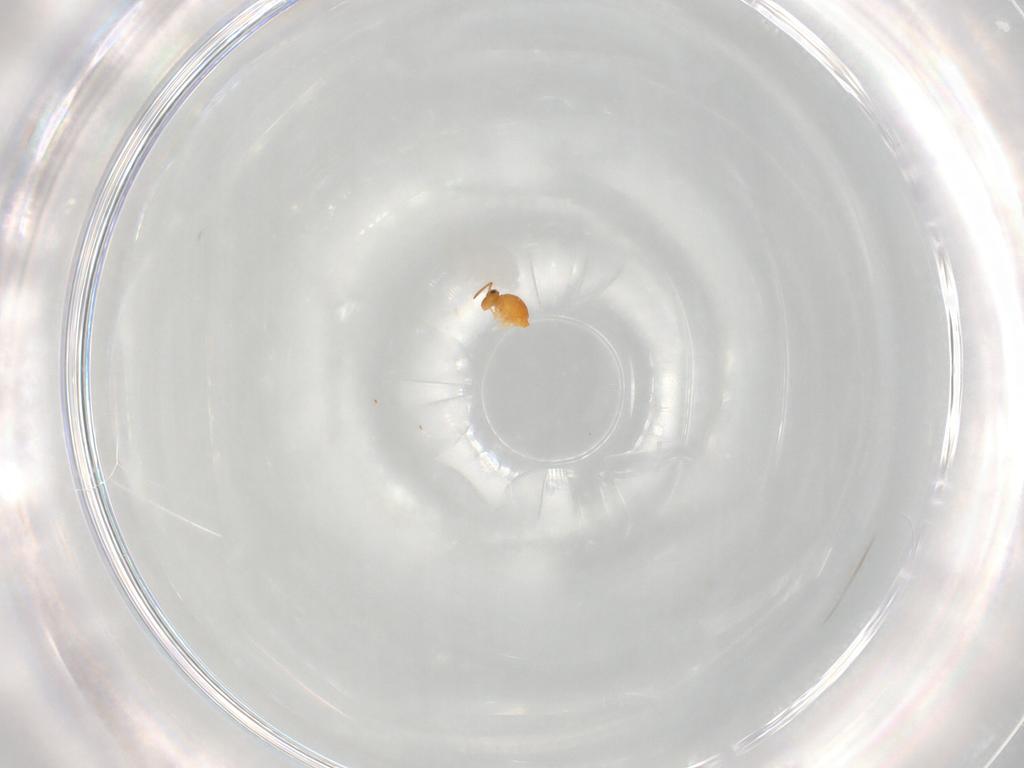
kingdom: Animalia
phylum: Arthropoda
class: Collembola
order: Symphypleona
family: Katiannidae
